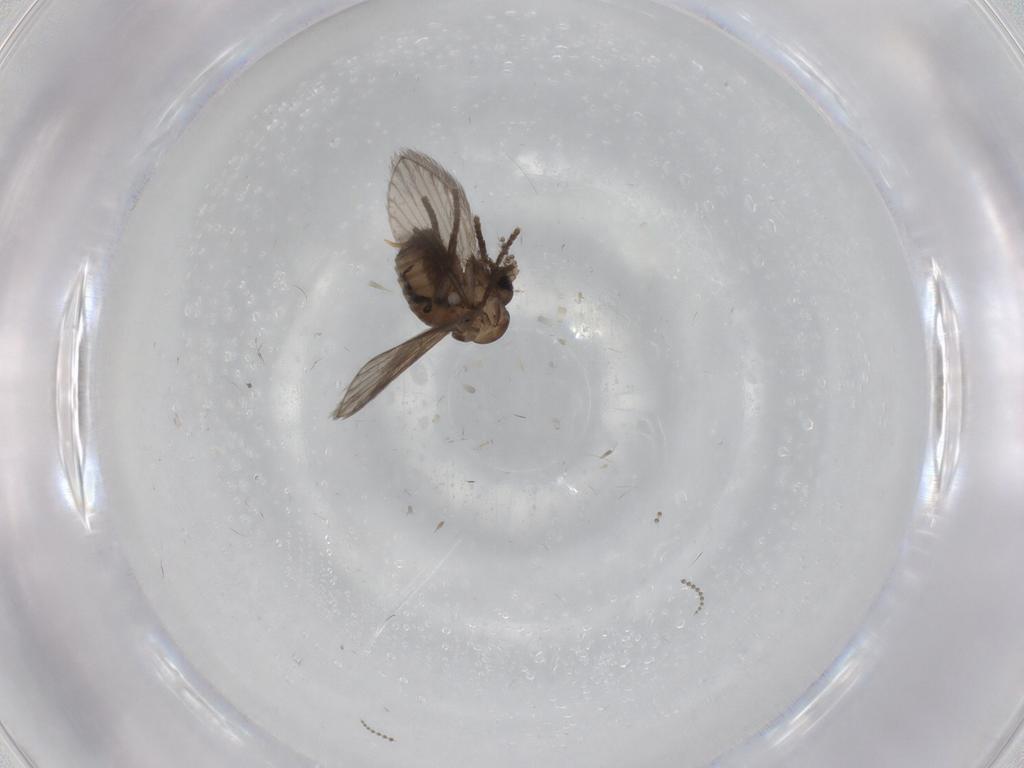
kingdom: Animalia
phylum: Arthropoda
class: Insecta
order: Diptera
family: Chironomidae
